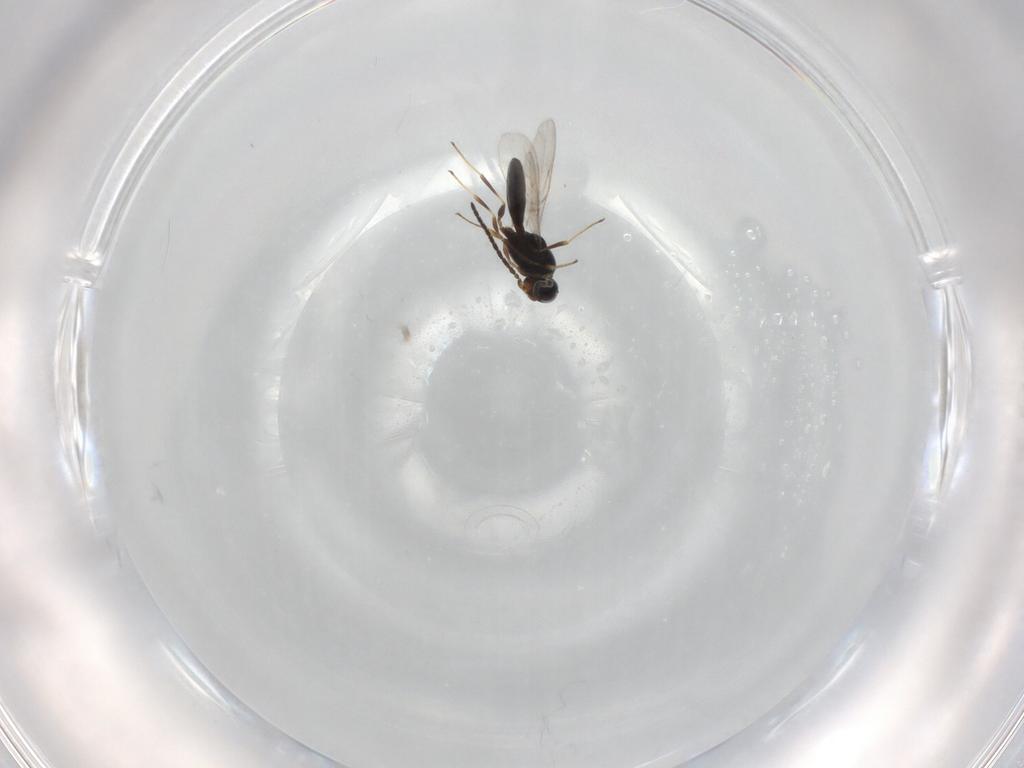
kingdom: Animalia
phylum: Arthropoda
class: Insecta
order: Hymenoptera
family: Scelionidae
